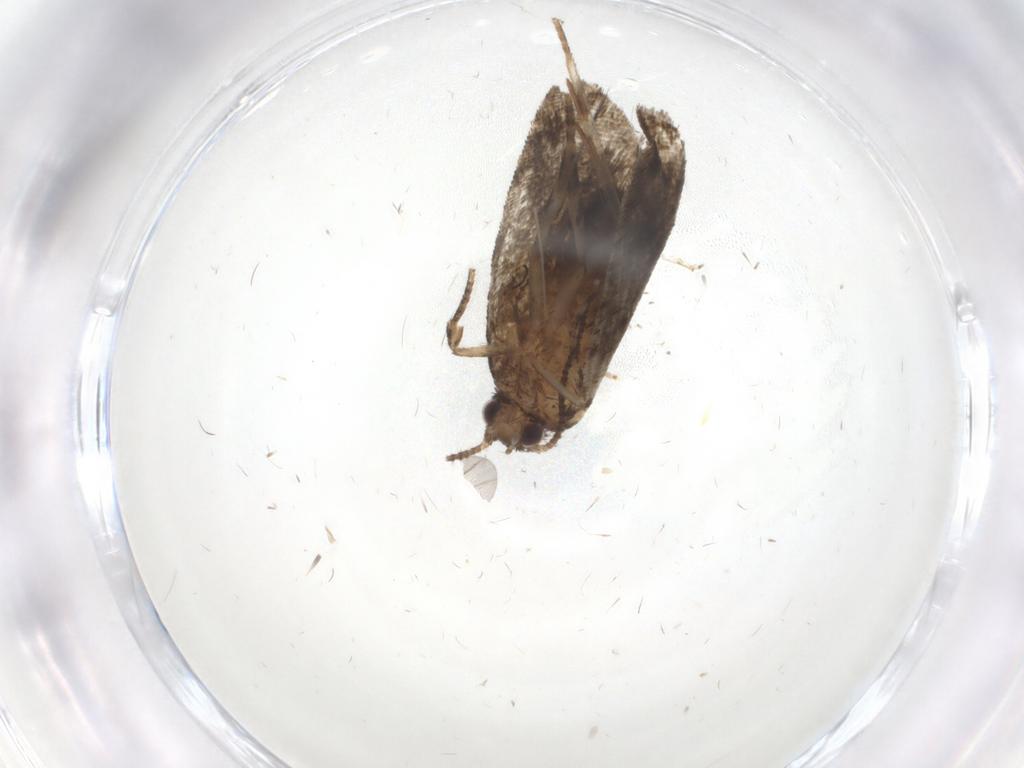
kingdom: Animalia
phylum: Arthropoda
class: Insecta
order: Lepidoptera
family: Tortricidae
